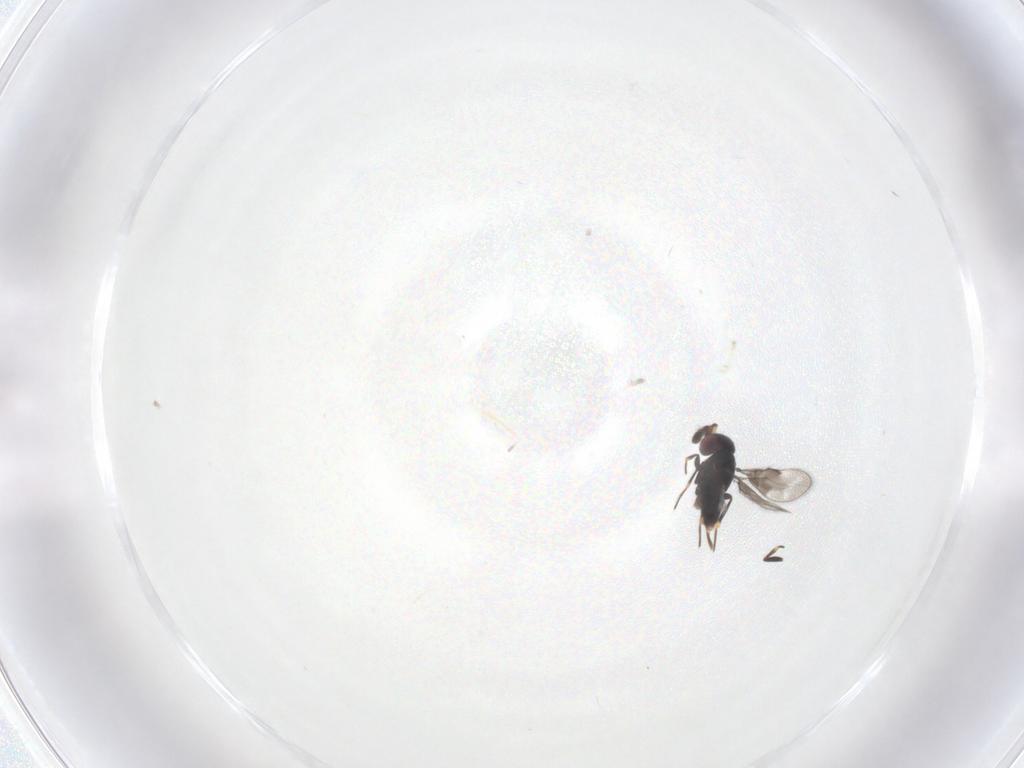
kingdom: Animalia
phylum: Arthropoda
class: Insecta
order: Hymenoptera
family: Eulophidae
